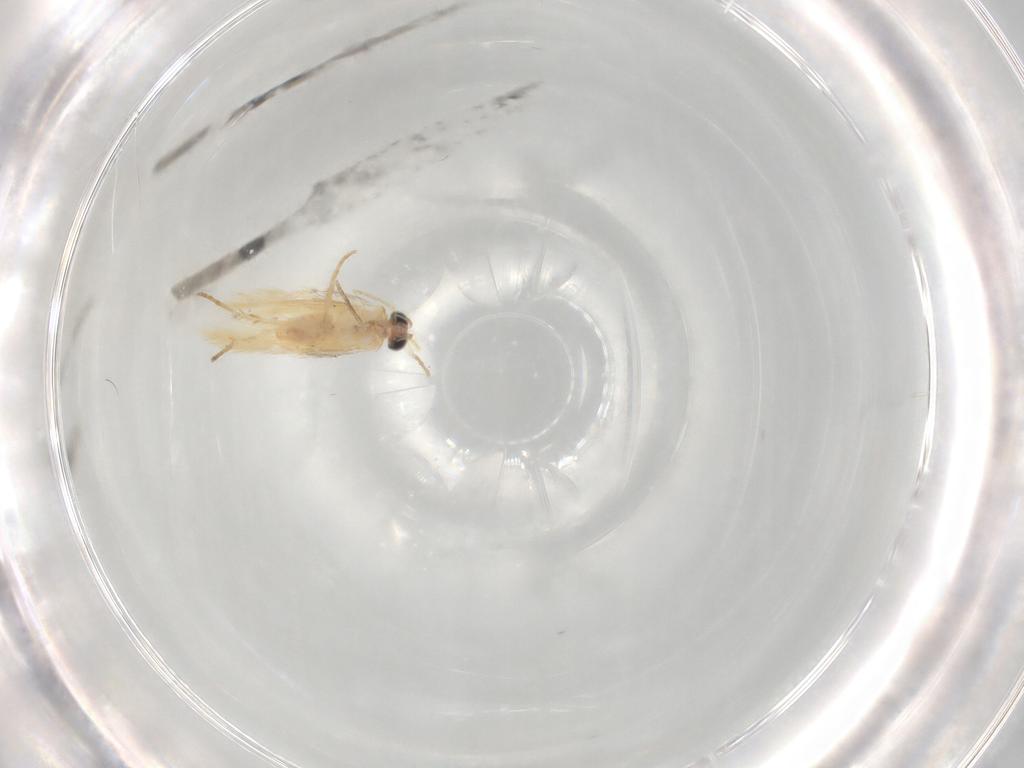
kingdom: Animalia
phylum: Arthropoda
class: Insecta
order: Lepidoptera
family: Nepticulidae
